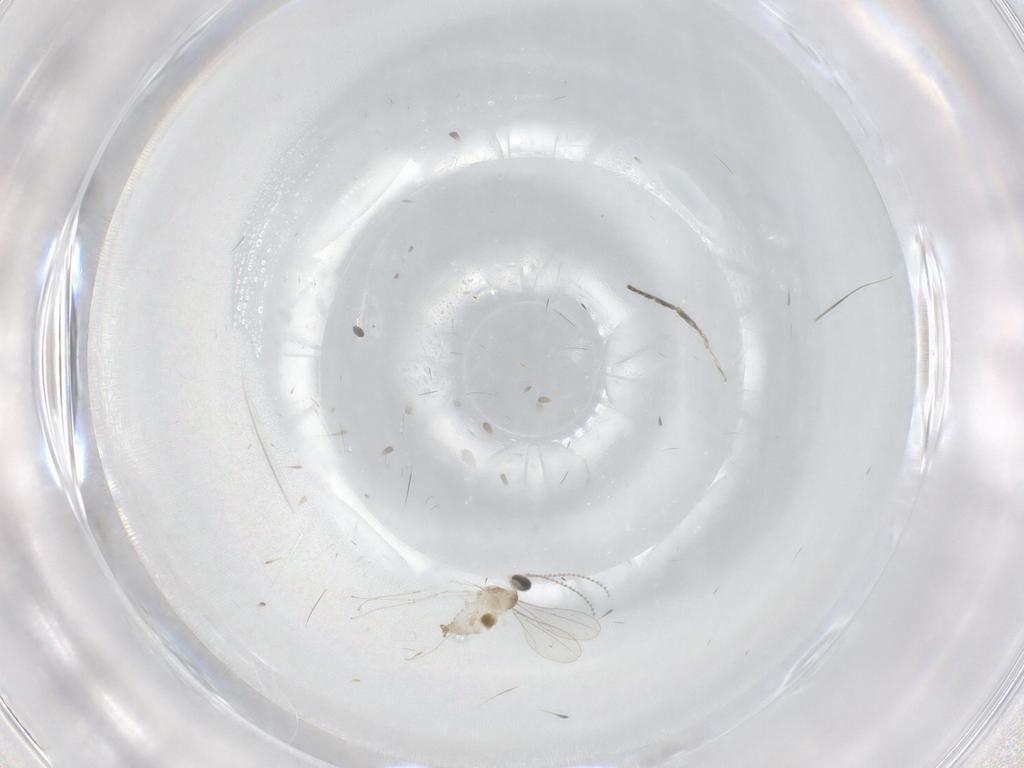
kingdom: Animalia
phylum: Arthropoda
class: Insecta
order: Diptera
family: Cecidomyiidae
